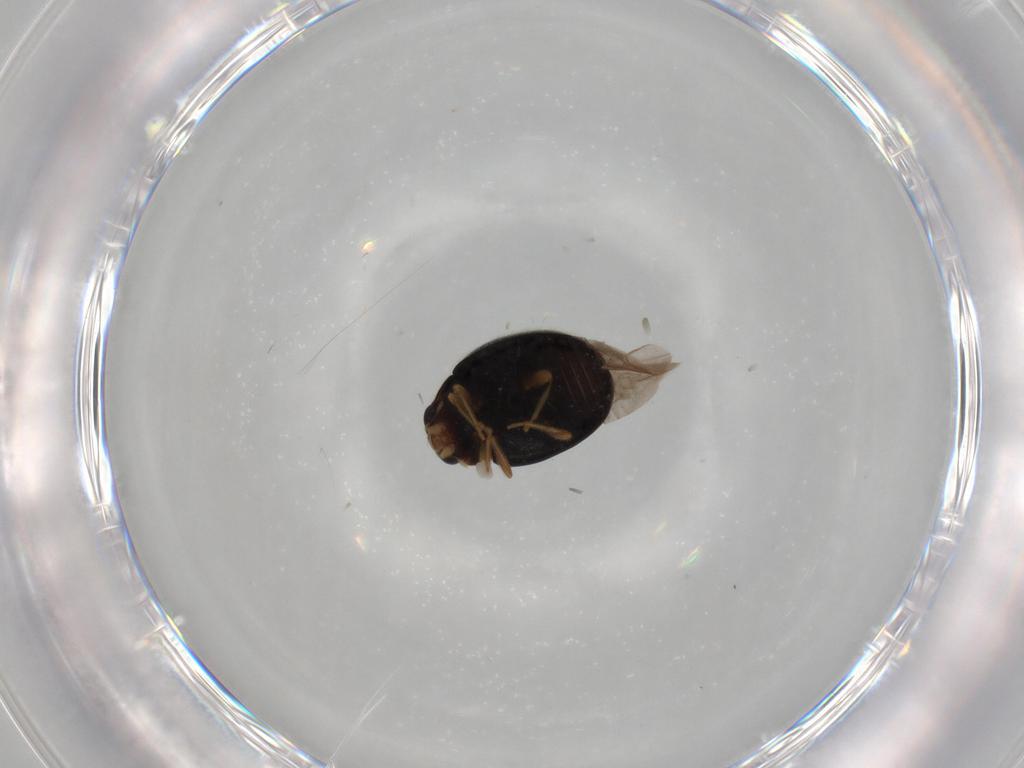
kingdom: Animalia
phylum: Arthropoda
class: Insecta
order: Coleoptera
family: Coccinellidae
